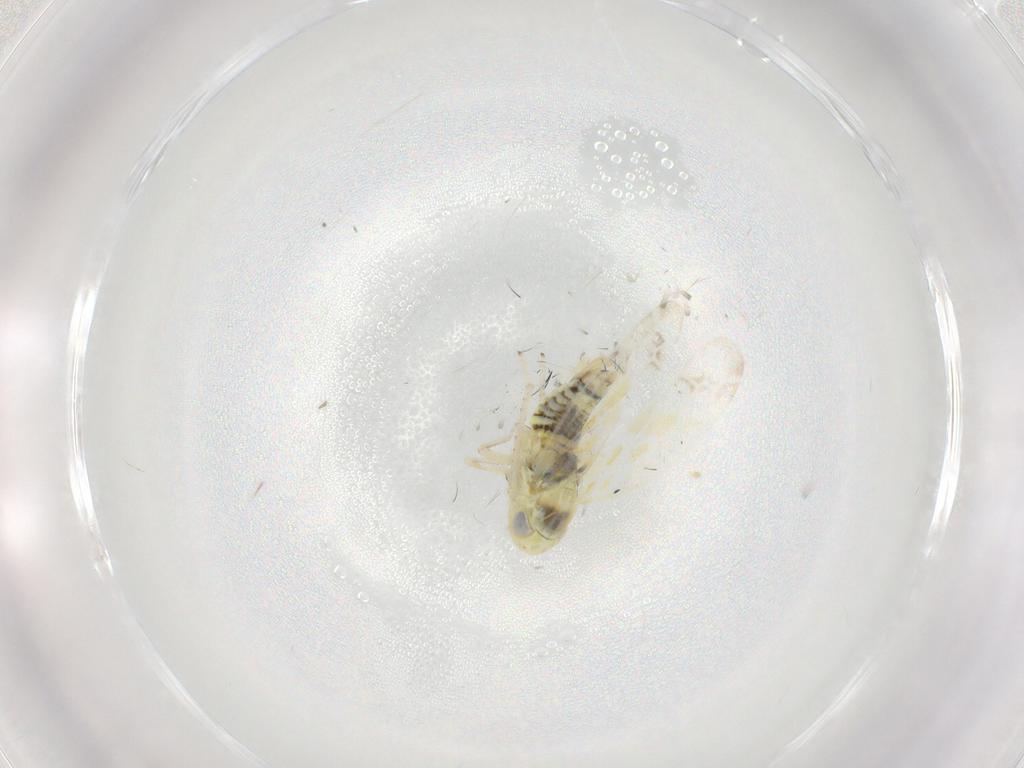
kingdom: Animalia
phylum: Arthropoda
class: Insecta
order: Hemiptera
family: Cicadellidae
